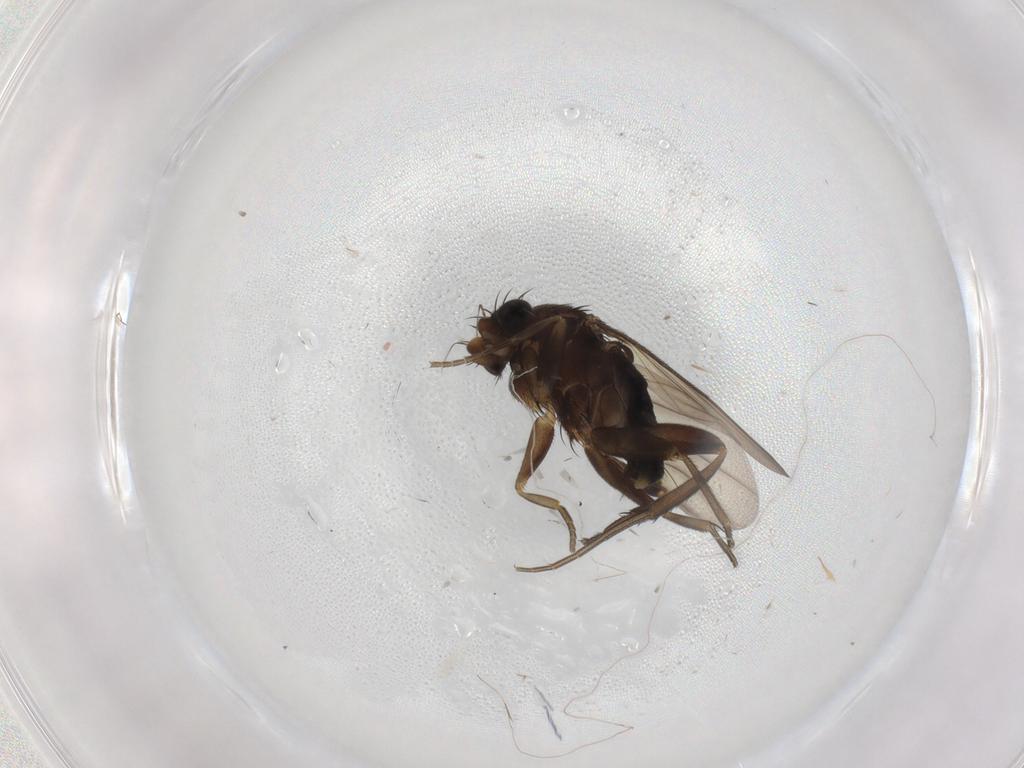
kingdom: Animalia
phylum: Arthropoda
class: Insecta
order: Diptera
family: Phoridae
